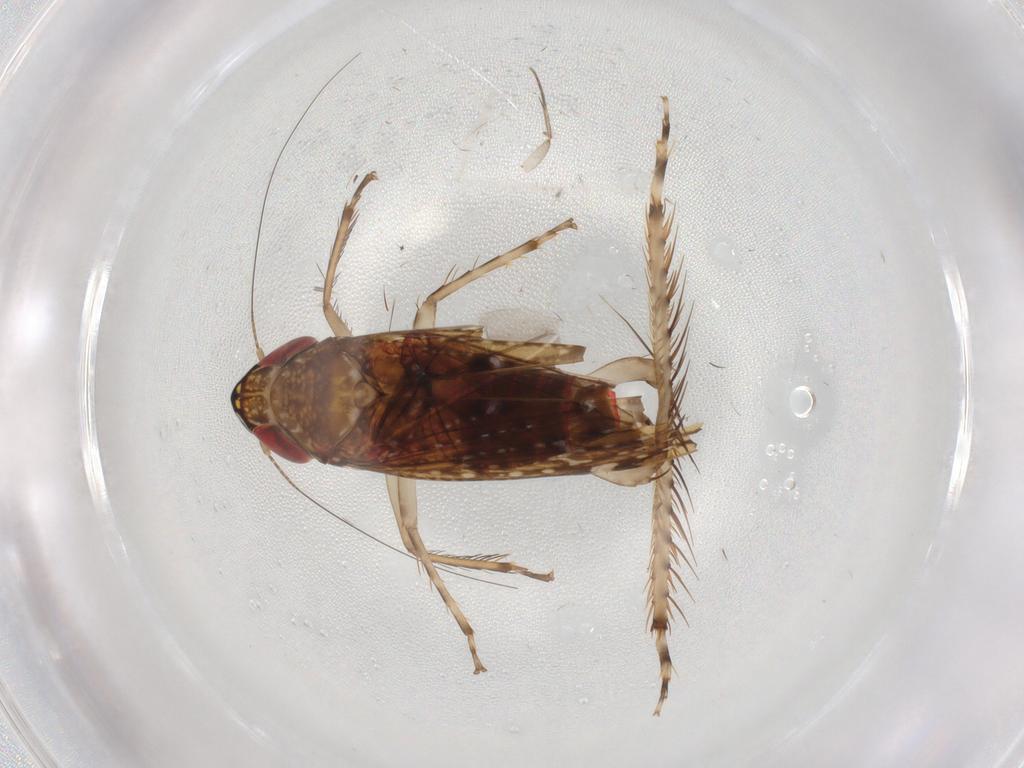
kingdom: Animalia
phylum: Arthropoda
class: Insecta
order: Hemiptera
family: Cicadellidae
